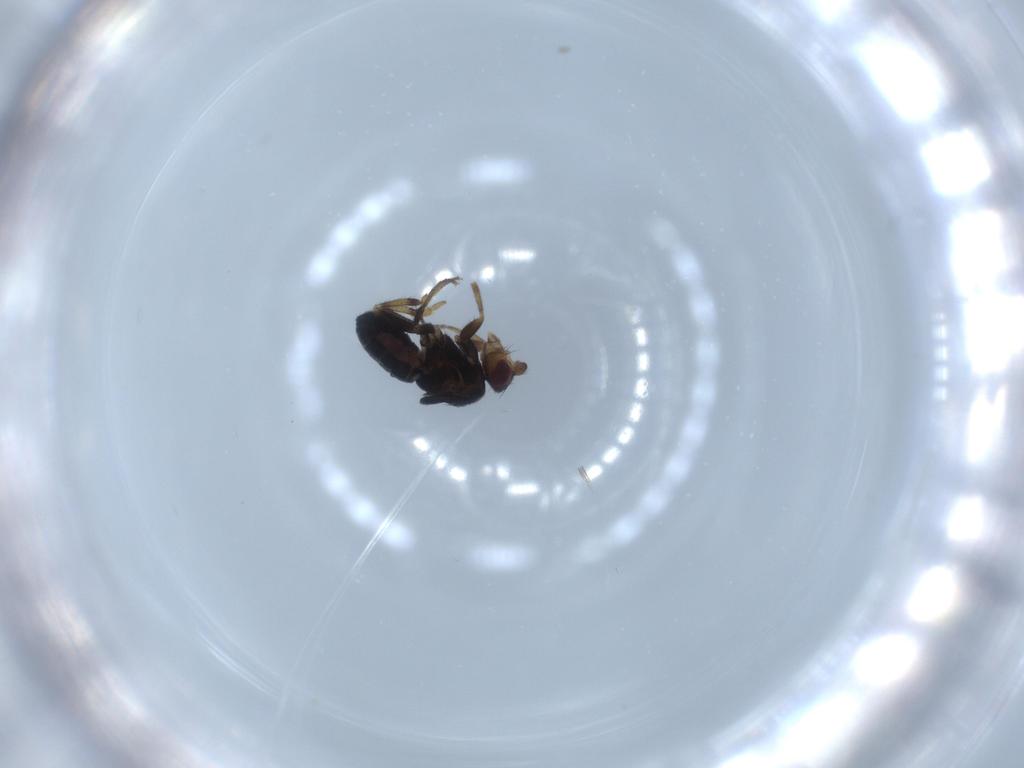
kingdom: Animalia
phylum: Arthropoda
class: Insecta
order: Diptera
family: Sphaeroceridae
